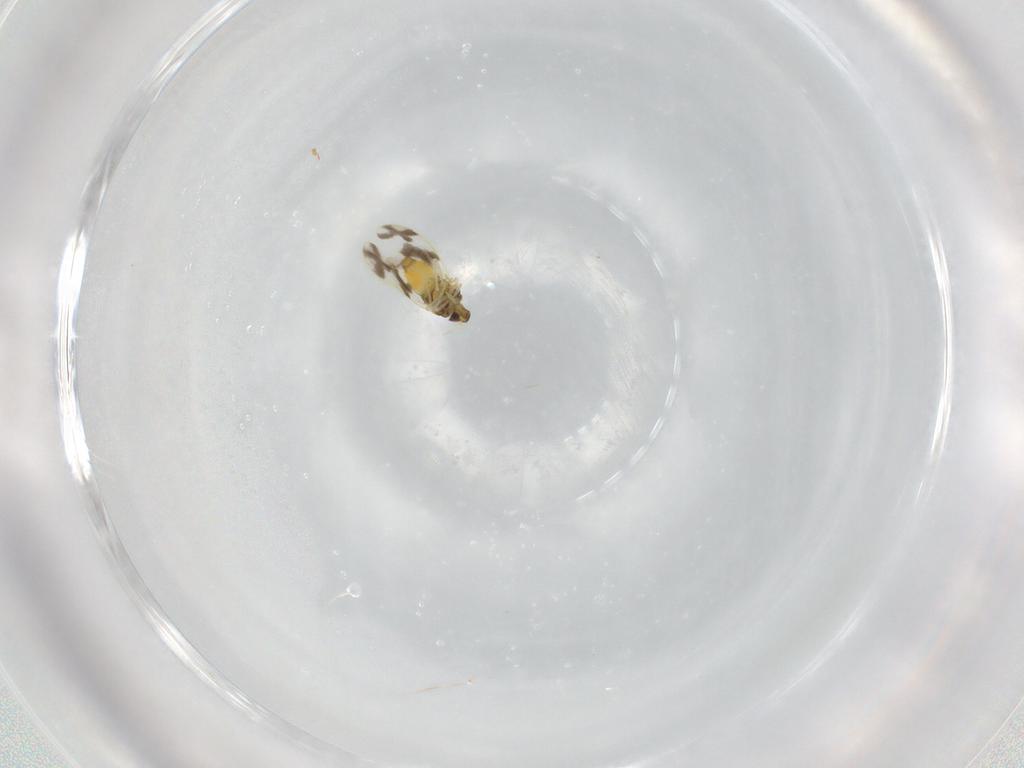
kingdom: Animalia
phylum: Arthropoda
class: Insecta
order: Hemiptera
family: Aleyrodidae
